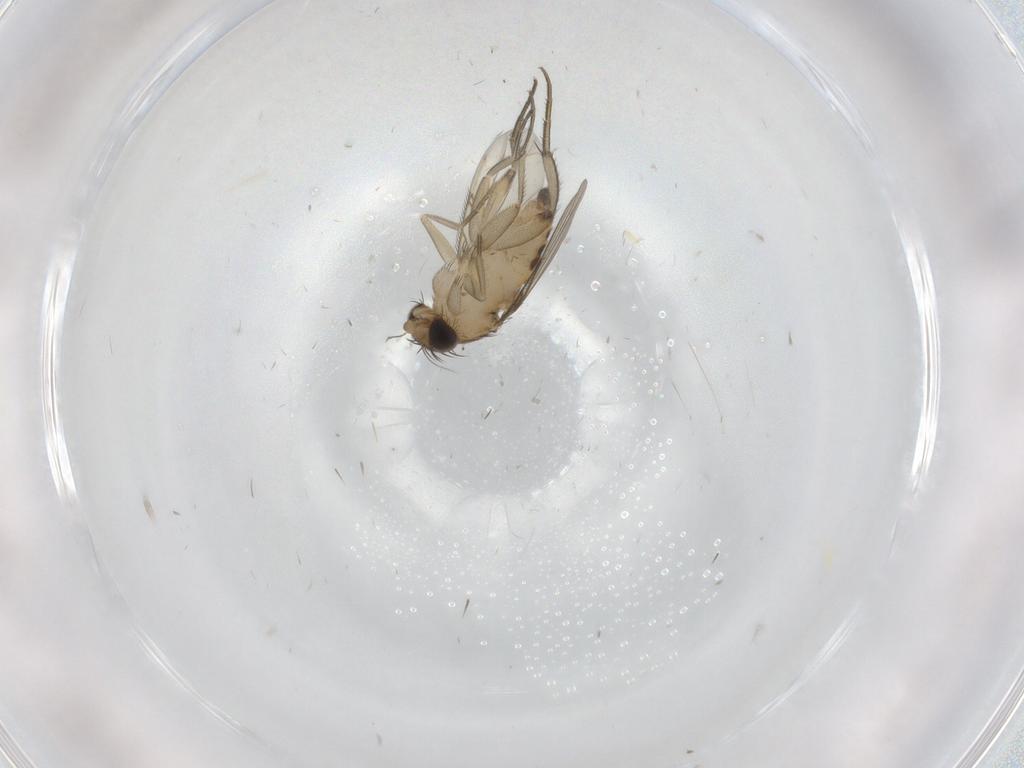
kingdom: Animalia
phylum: Arthropoda
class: Insecta
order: Diptera
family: Phoridae
